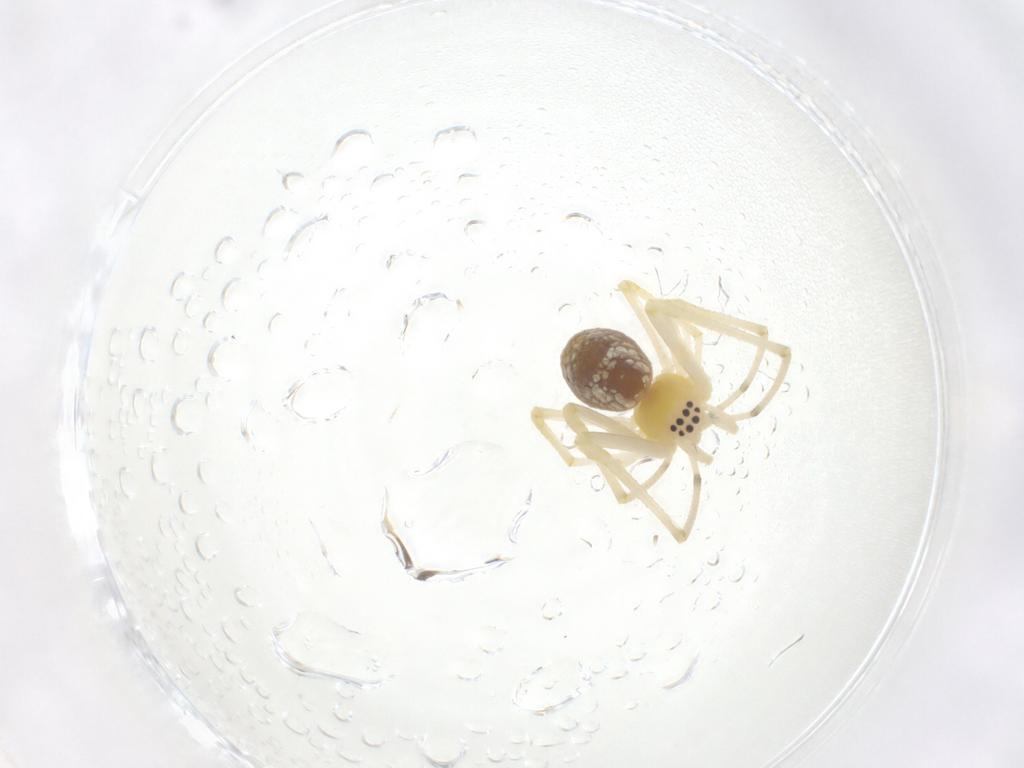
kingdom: Animalia
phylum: Arthropoda
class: Arachnida
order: Araneae
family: Tetragnathidae
